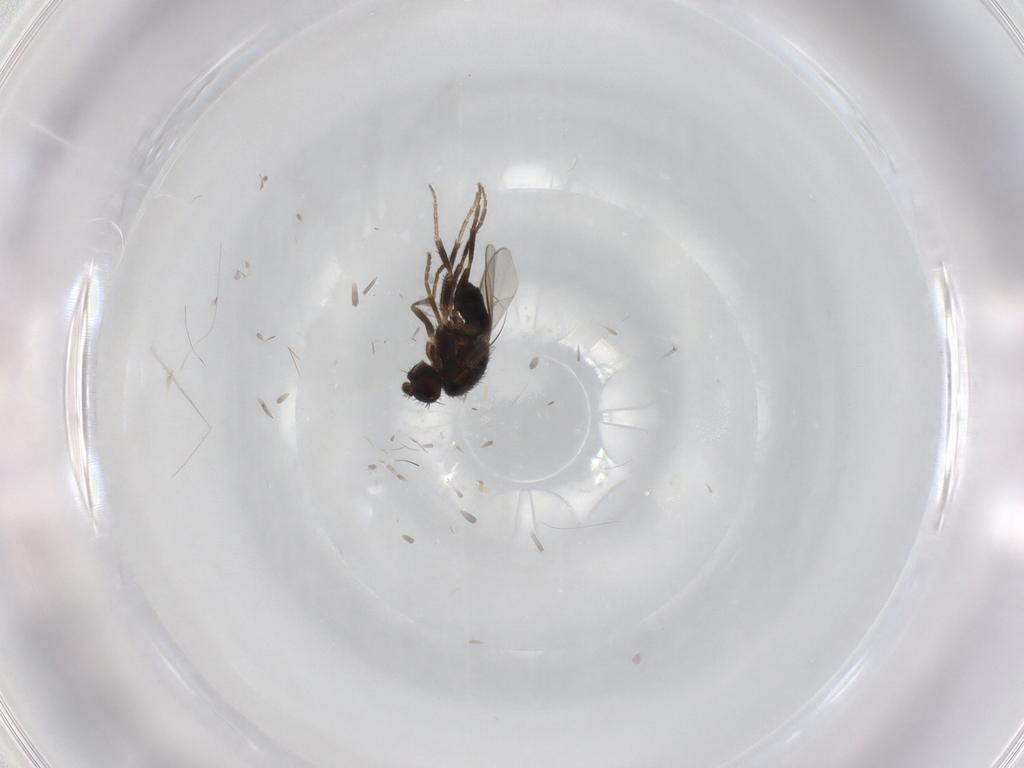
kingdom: Animalia
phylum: Arthropoda
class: Insecta
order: Diptera
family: Sphaeroceridae
